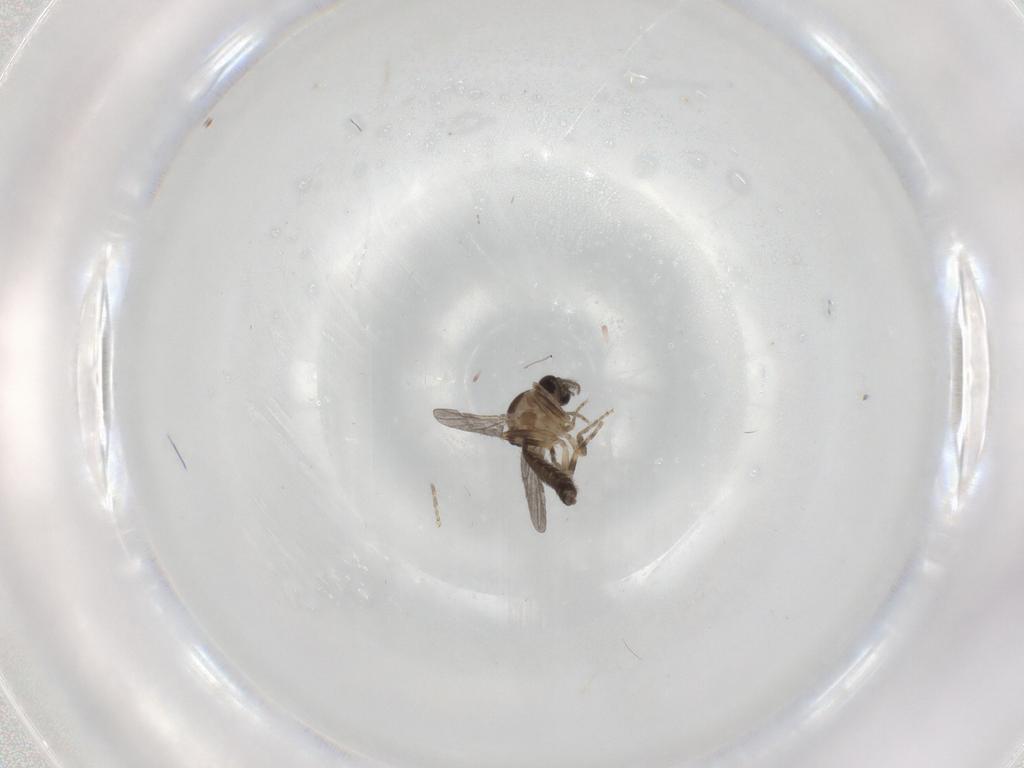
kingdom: Animalia
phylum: Arthropoda
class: Insecta
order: Diptera
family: Ceratopogonidae
